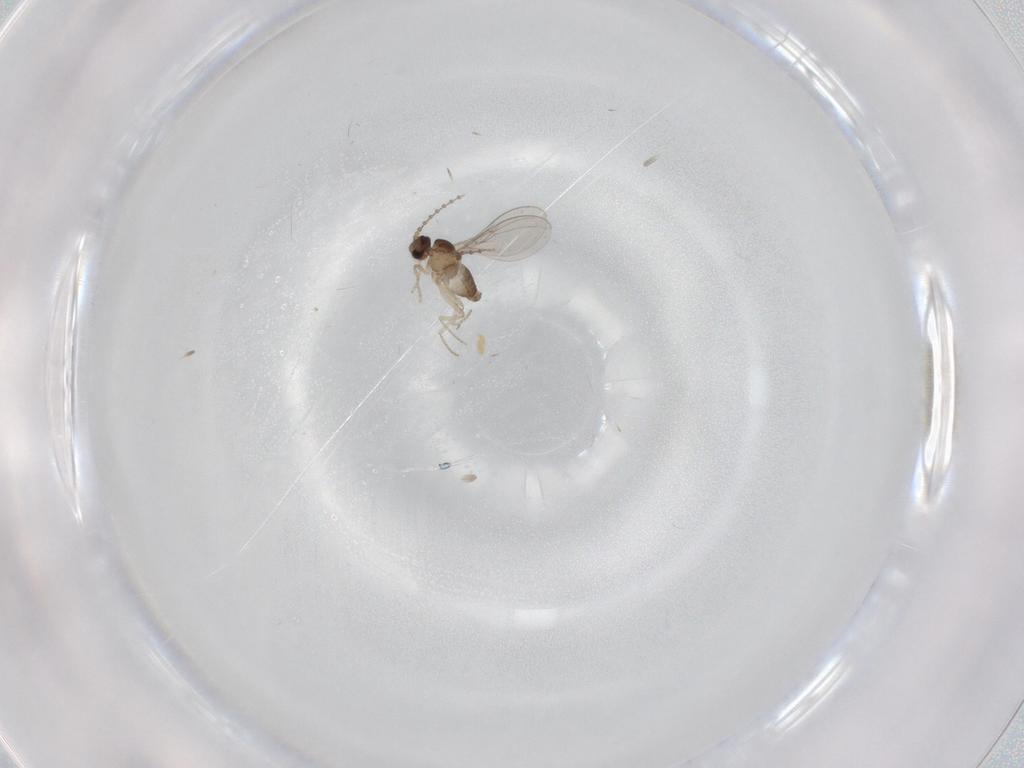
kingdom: Animalia
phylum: Arthropoda
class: Insecta
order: Diptera
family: Chironomidae
